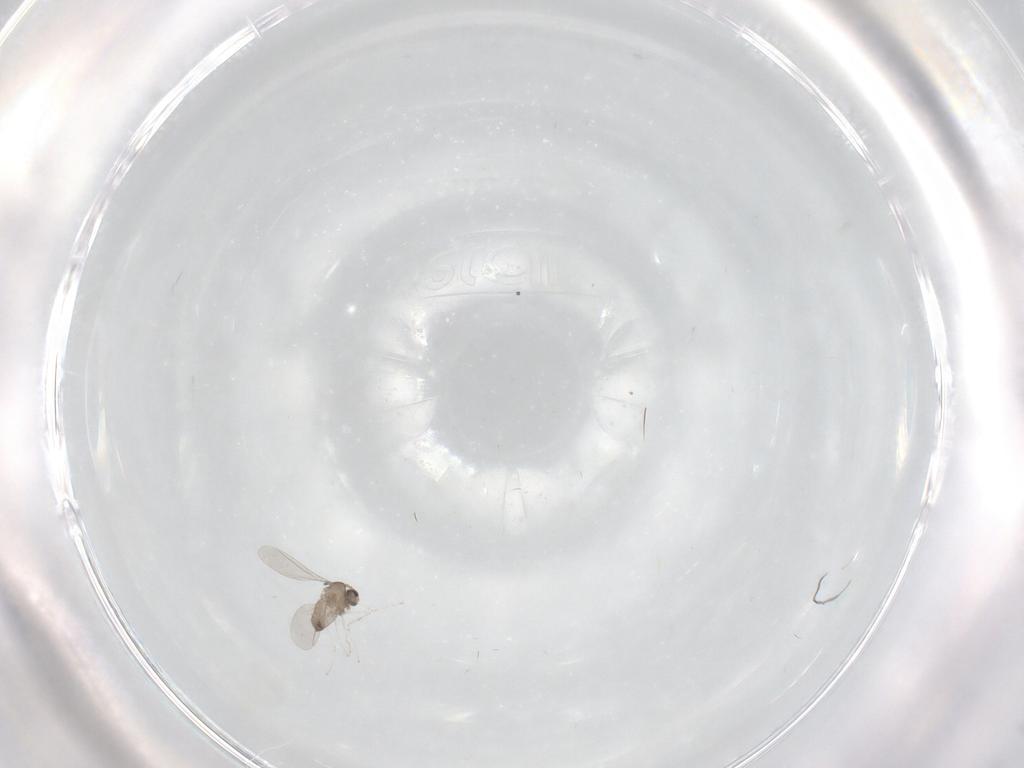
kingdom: Animalia
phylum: Arthropoda
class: Insecta
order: Diptera
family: Cecidomyiidae
